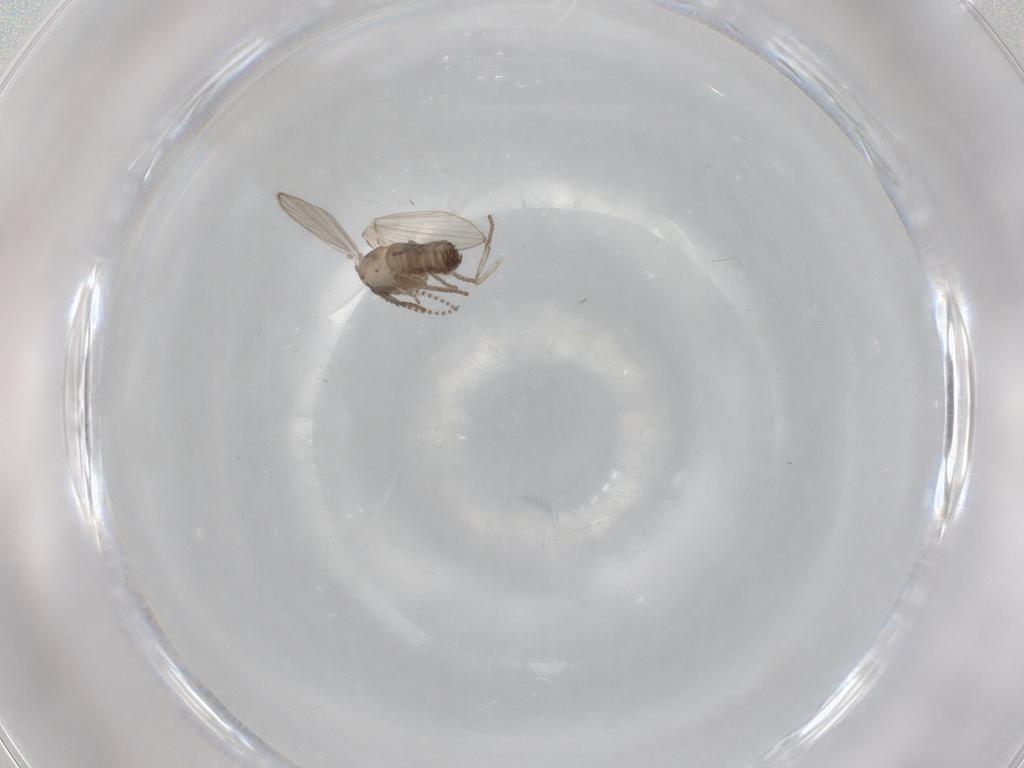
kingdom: Animalia
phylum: Arthropoda
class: Insecta
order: Diptera
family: Psychodidae
